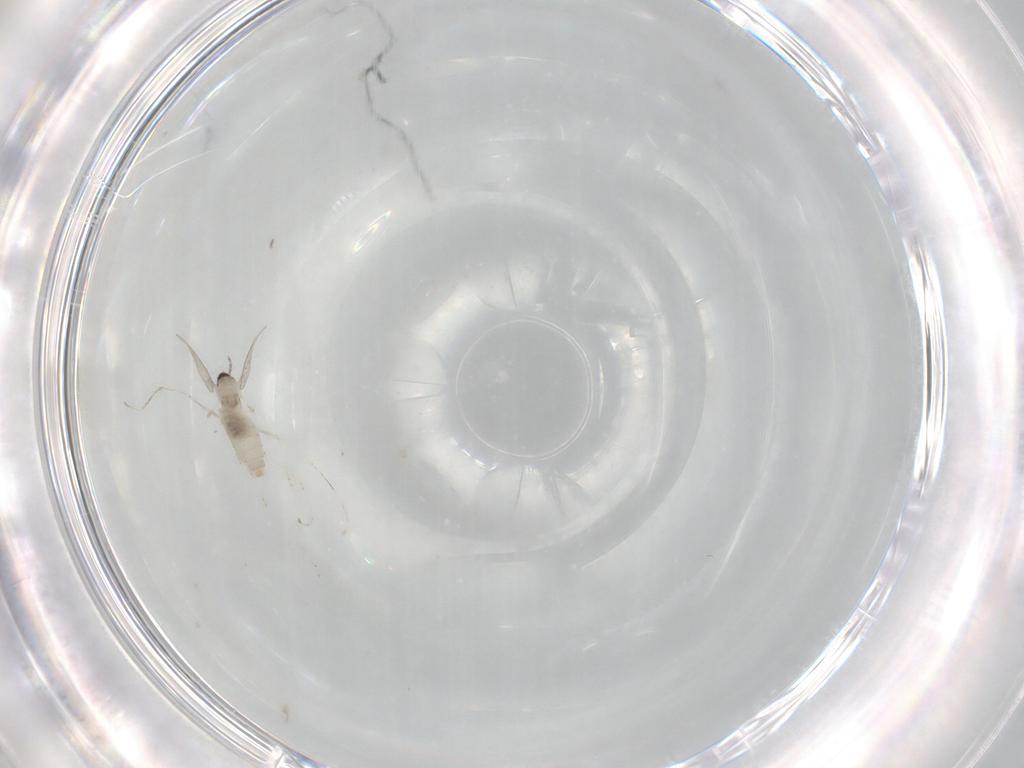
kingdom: Animalia
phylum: Arthropoda
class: Insecta
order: Diptera
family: Cecidomyiidae
